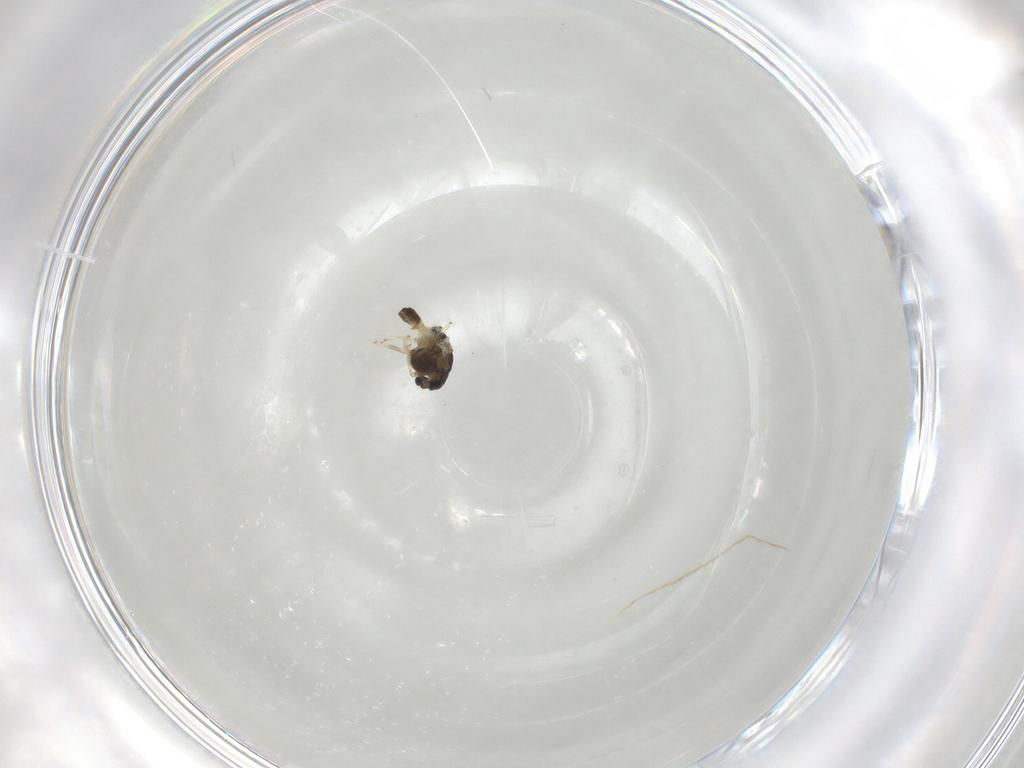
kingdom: Animalia
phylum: Arthropoda
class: Insecta
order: Diptera
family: Chironomidae
